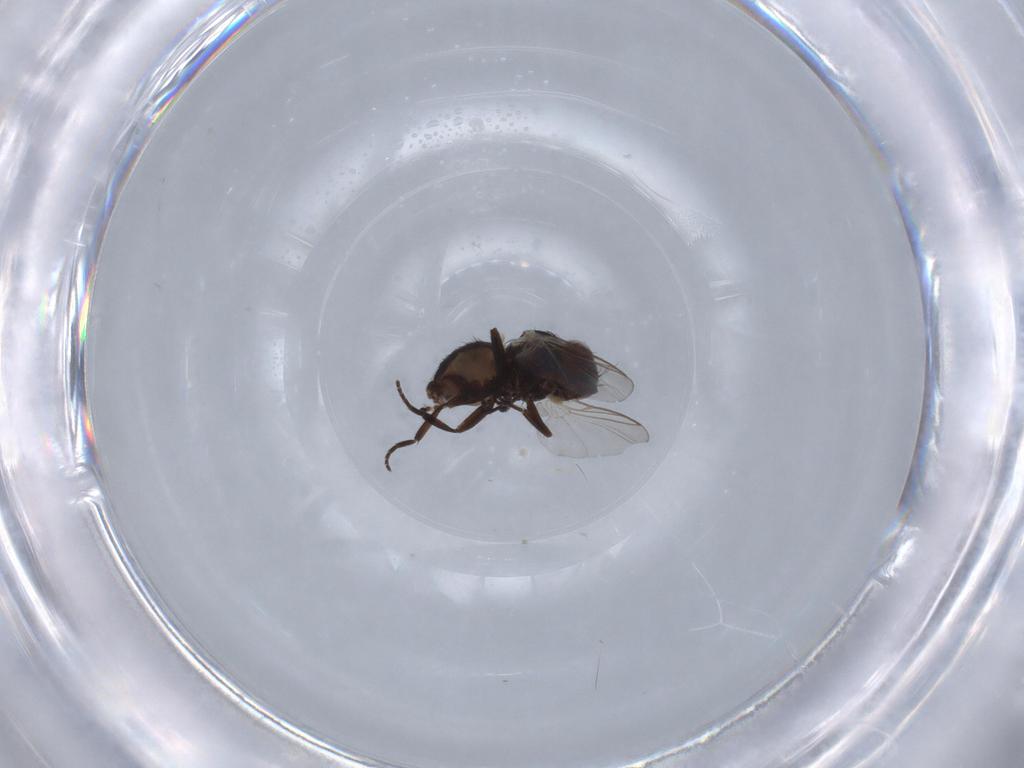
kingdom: Animalia
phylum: Arthropoda
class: Insecta
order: Diptera
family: Agromyzidae
